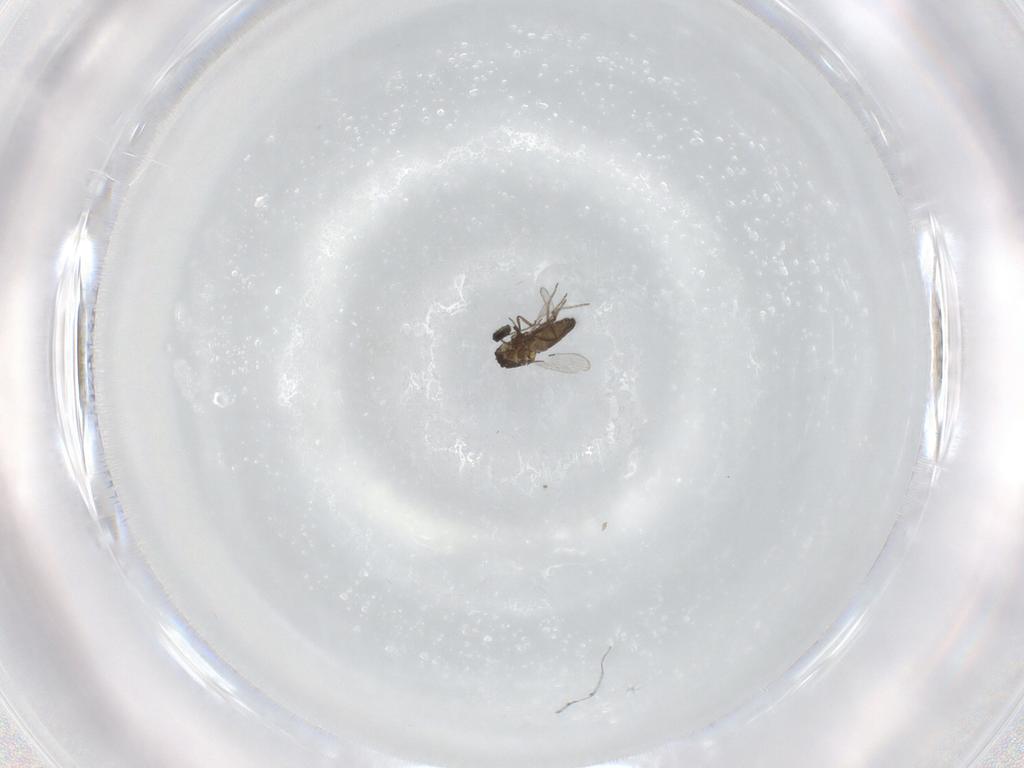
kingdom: Animalia
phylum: Arthropoda
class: Insecta
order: Diptera
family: Ceratopogonidae
